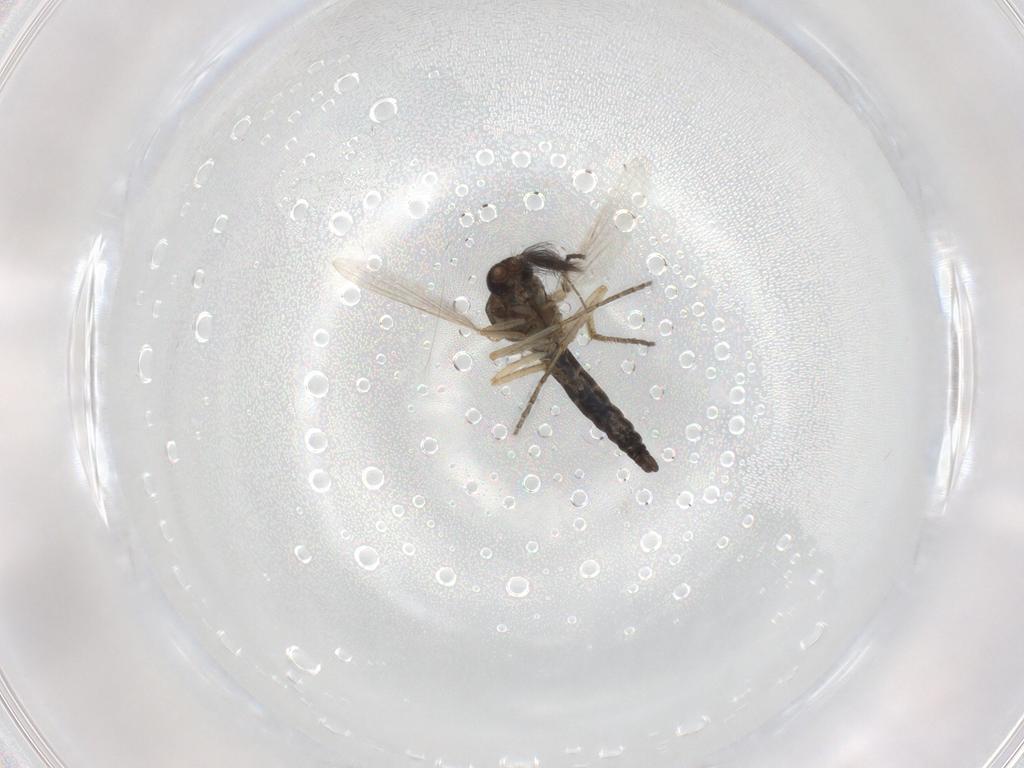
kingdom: Animalia
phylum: Arthropoda
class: Insecta
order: Diptera
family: Ceratopogonidae
